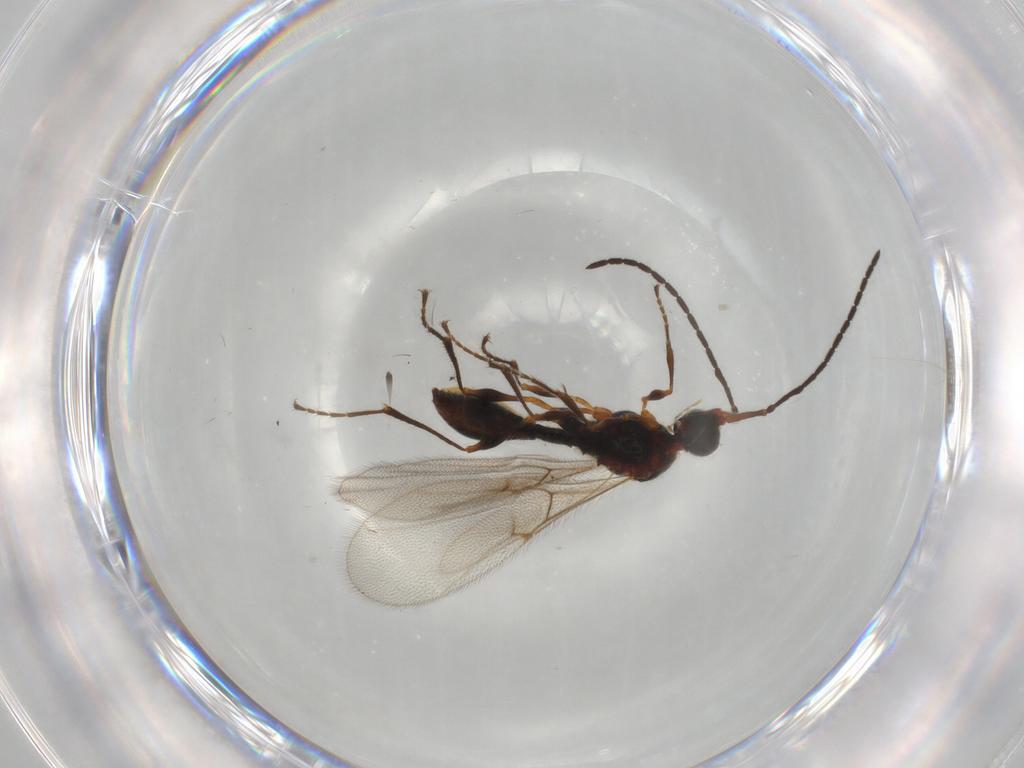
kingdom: Animalia
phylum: Arthropoda
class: Insecta
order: Hymenoptera
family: Diapriidae
